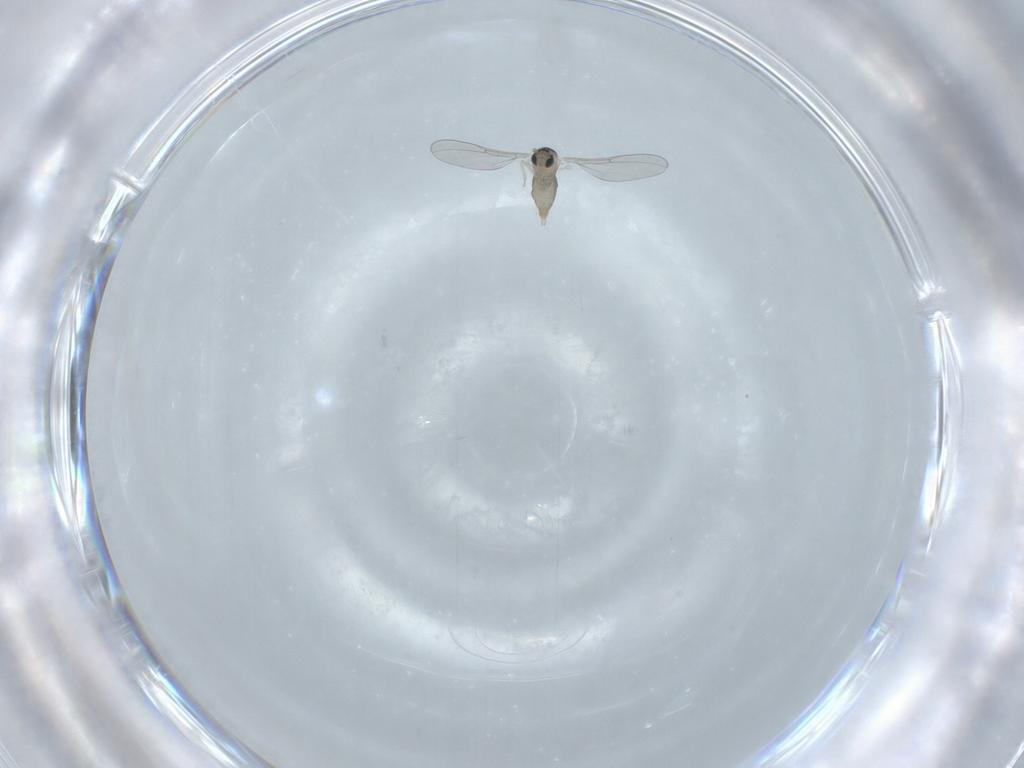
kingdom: Animalia
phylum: Arthropoda
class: Insecta
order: Diptera
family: Cecidomyiidae
